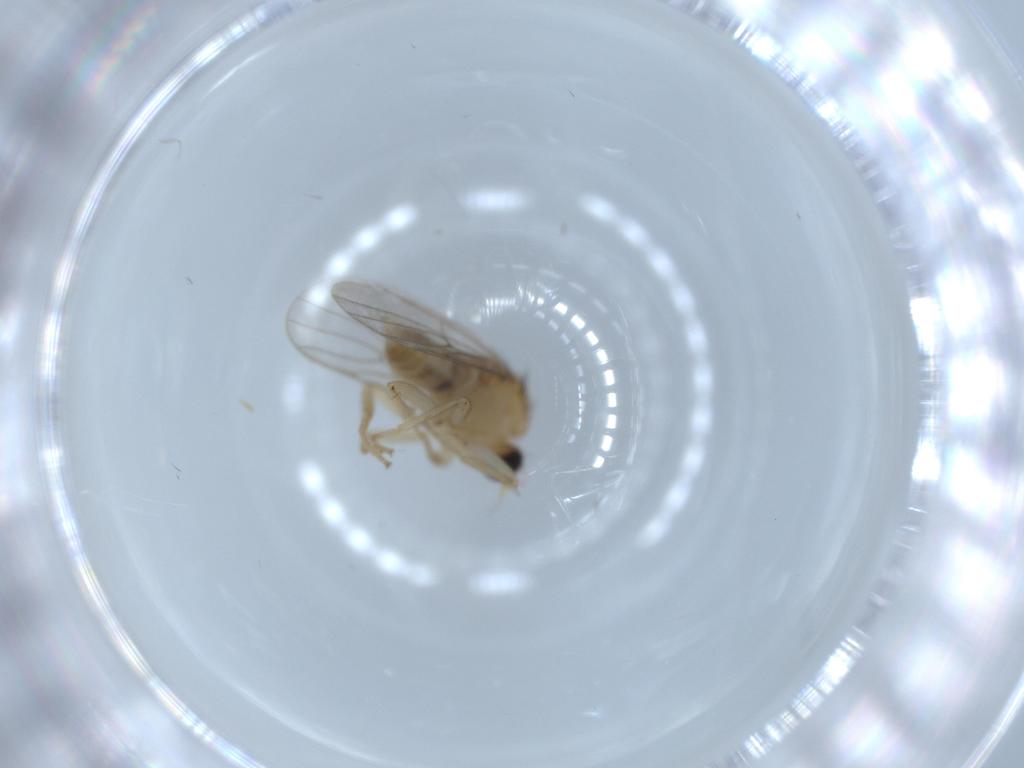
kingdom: Animalia
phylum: Arthropoda
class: Insecta
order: Diptera
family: Hybotidae
